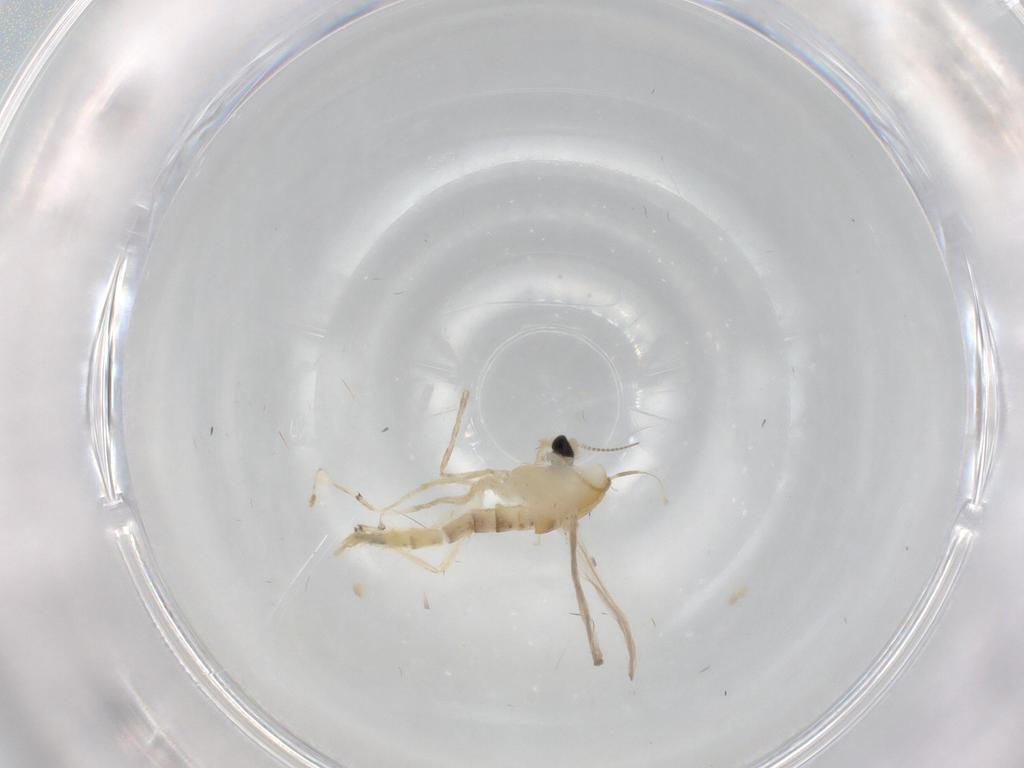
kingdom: Animalia
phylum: Arthropoda
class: Insecta
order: Diptera
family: Chironomidae
